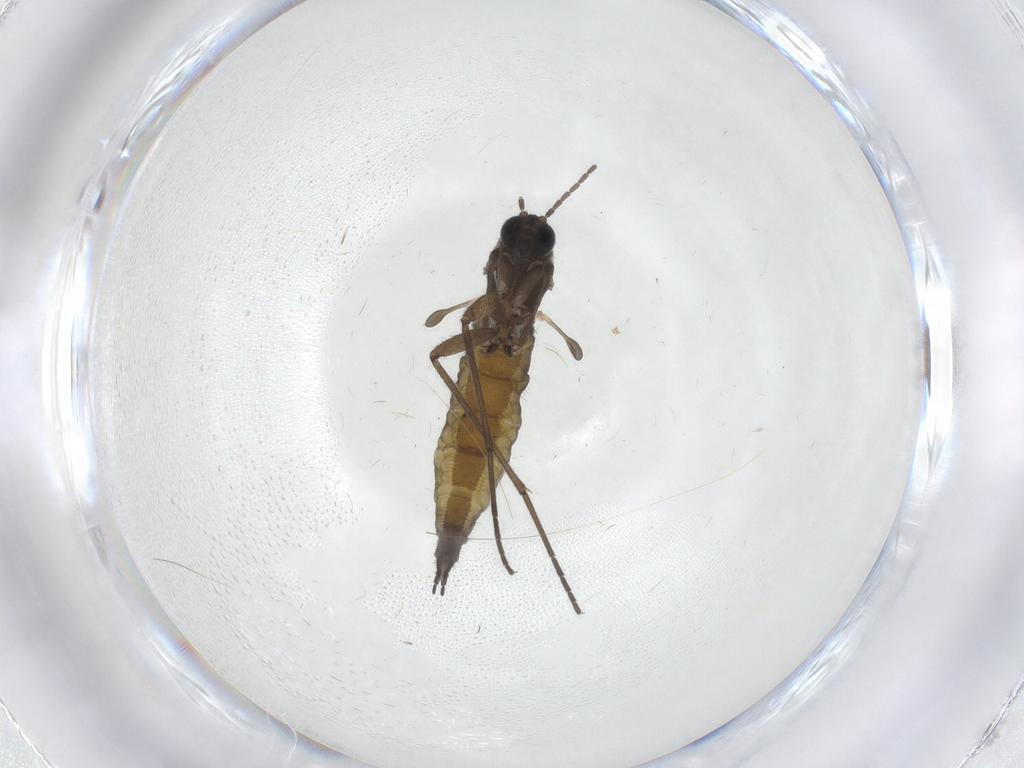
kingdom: Animalia
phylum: Arthropoda
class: Insecta
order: Diptera
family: Sciaridae
